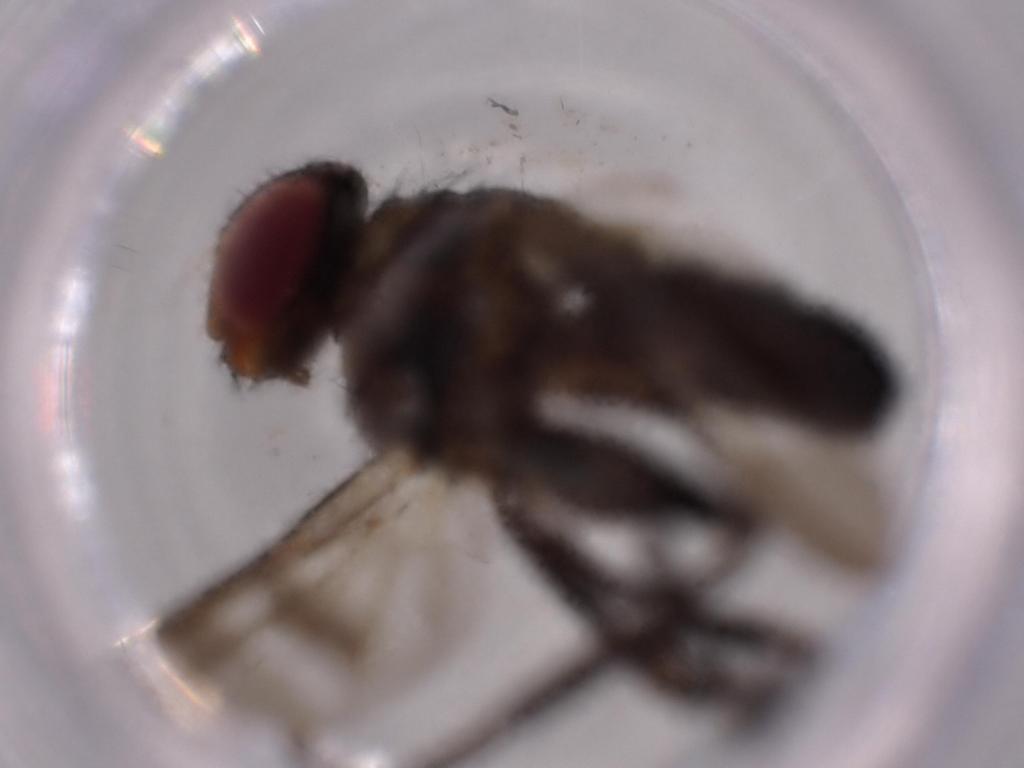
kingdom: Animalia
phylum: Arthropoda
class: Insecta
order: Diptera
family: Calliphoridae
